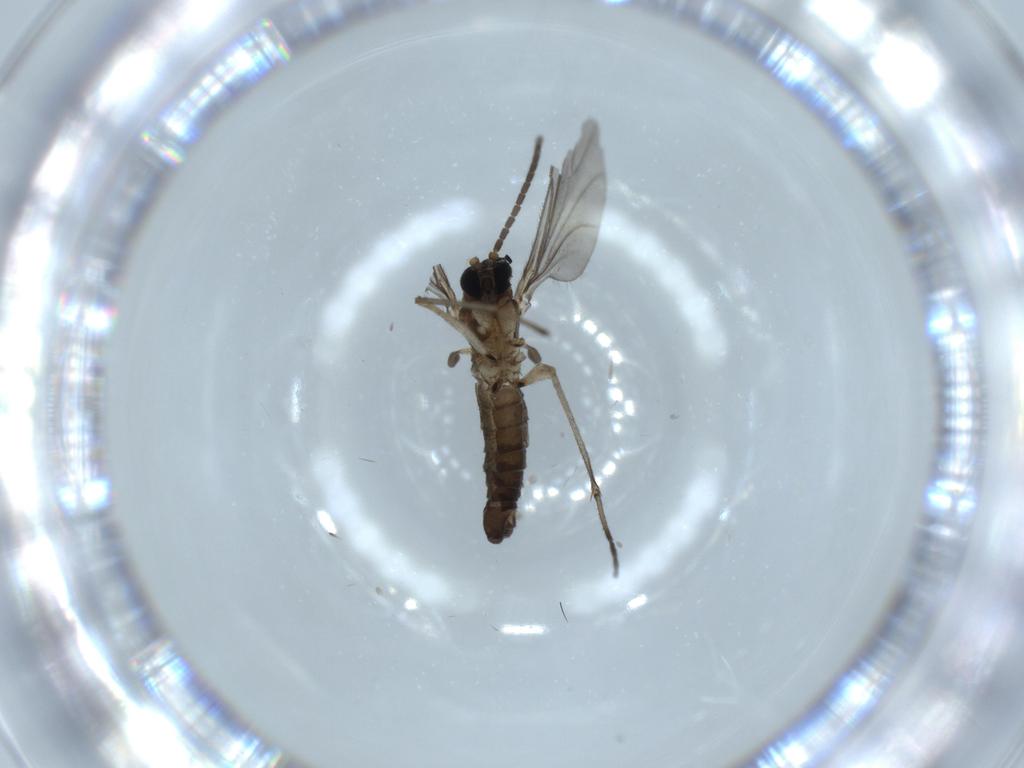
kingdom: Animalia
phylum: Arthropoda
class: Insecta
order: Diptera
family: Sciaridae
